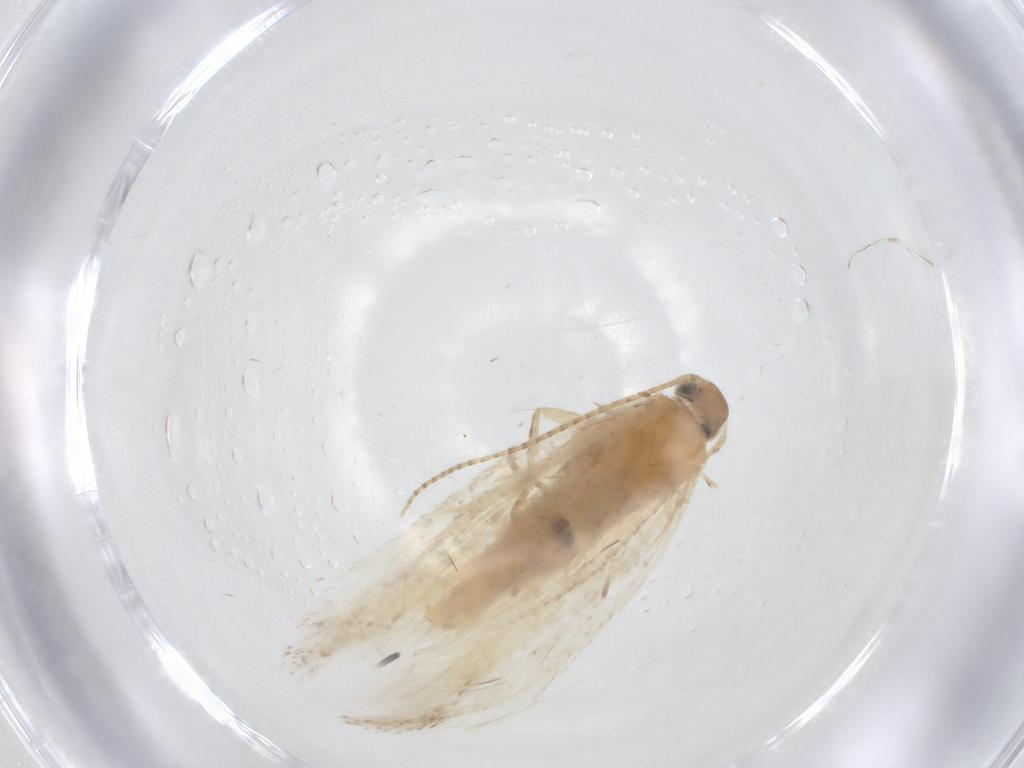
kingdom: Animalia
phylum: Arthropoda
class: Insecta
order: Lepidoptera
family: Gelechiidae
